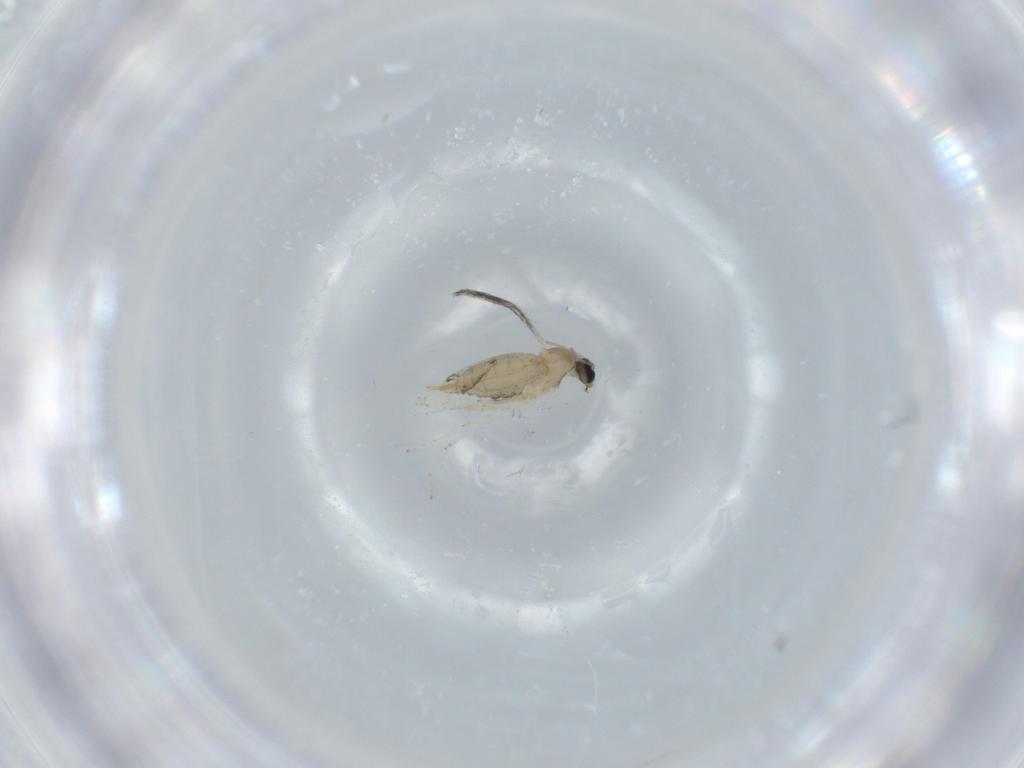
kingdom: Animalia
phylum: Arthropoda
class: Insecta
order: Diptera
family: Cecidomyiidae
